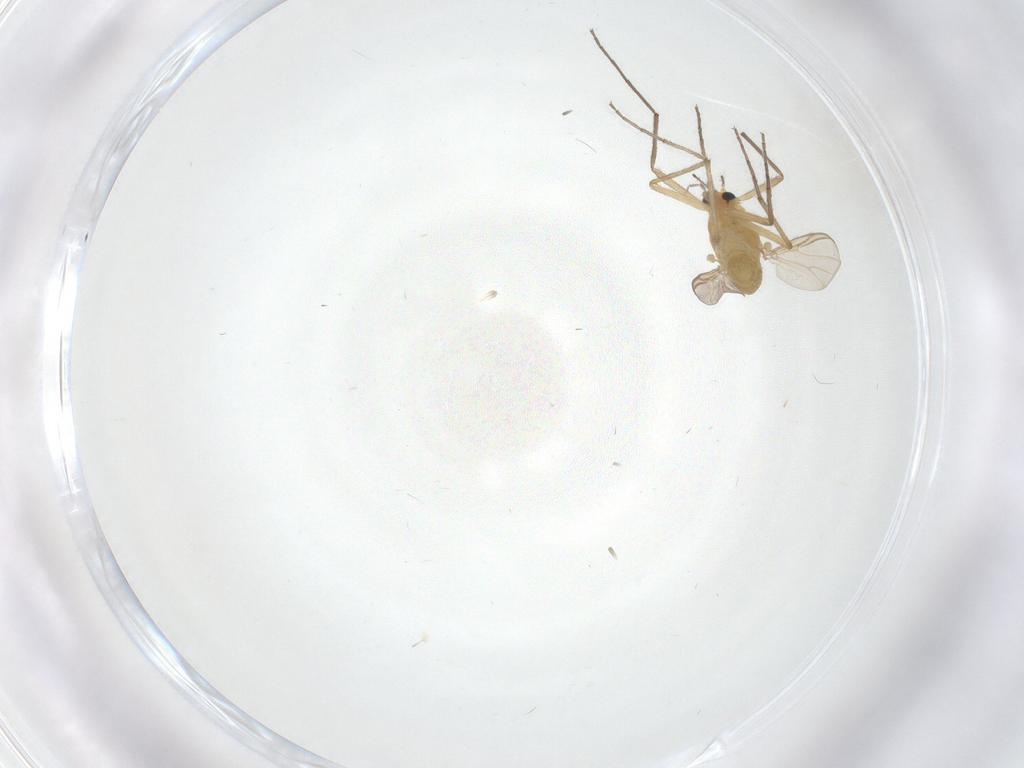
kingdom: Animalia
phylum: Arthropoda
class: Insecta
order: Diptera
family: Chironomidae
